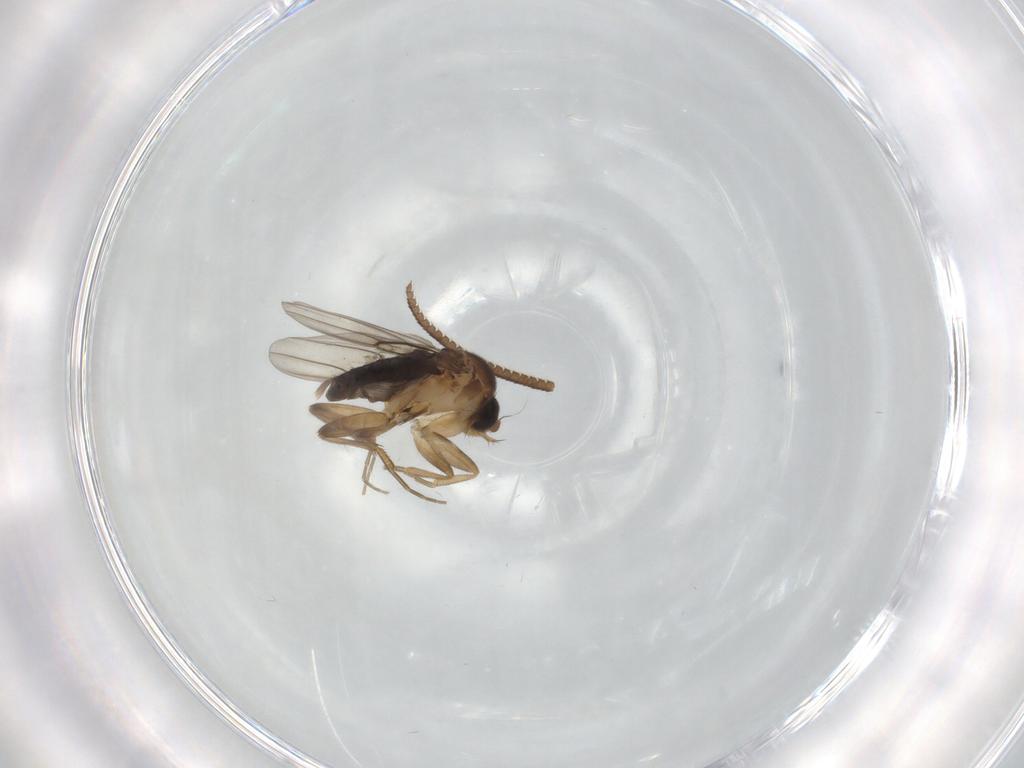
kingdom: Animalia
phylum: Arthropoda
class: Insecta
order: Diptera
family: Phoridae
